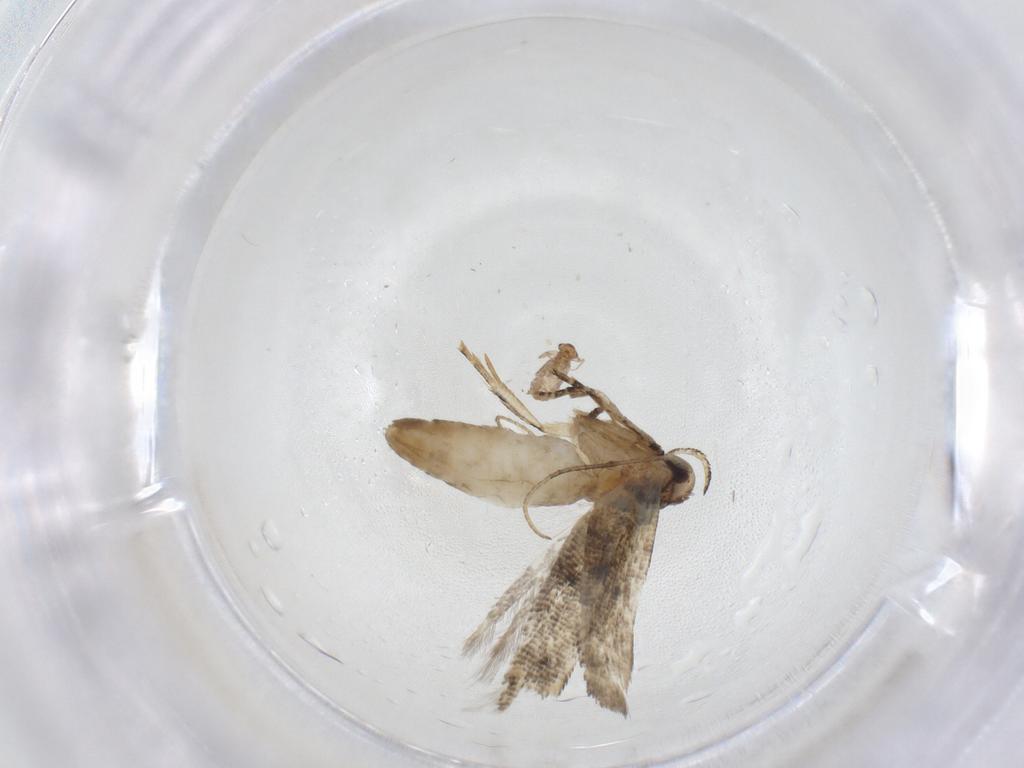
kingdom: Animalia
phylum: Arthropoda
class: Insecta
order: Lepidoptera
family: Gelechiidae
